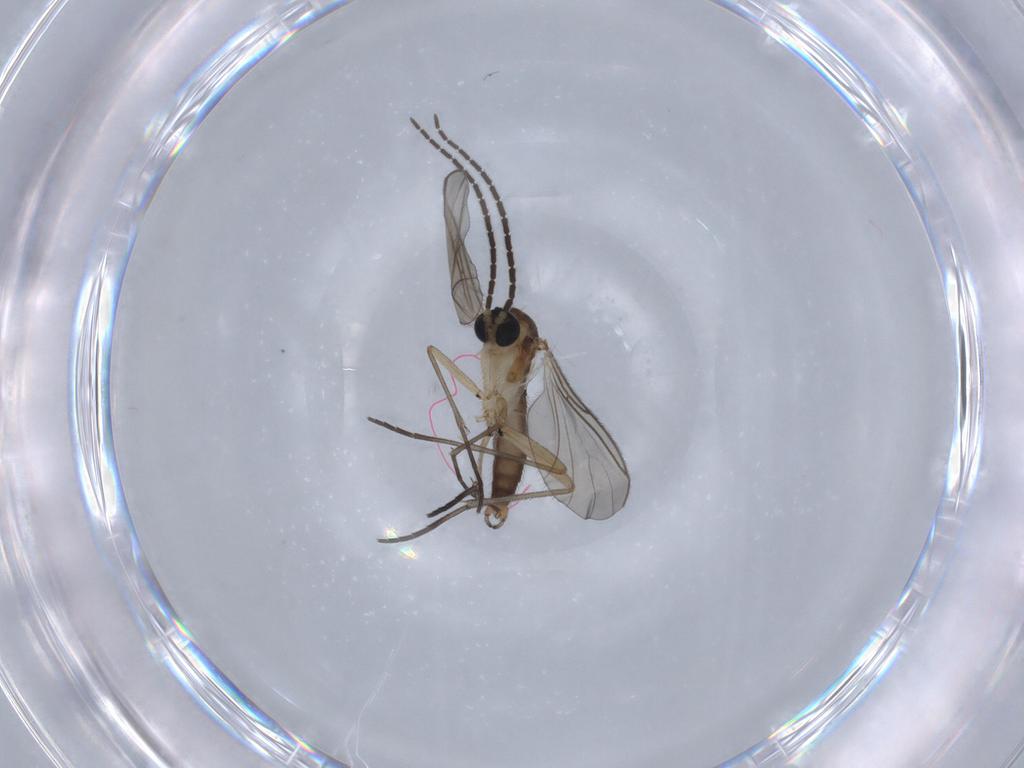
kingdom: Animalia
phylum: Arthropoda
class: Insecta
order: Diptera
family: Sciaridae
